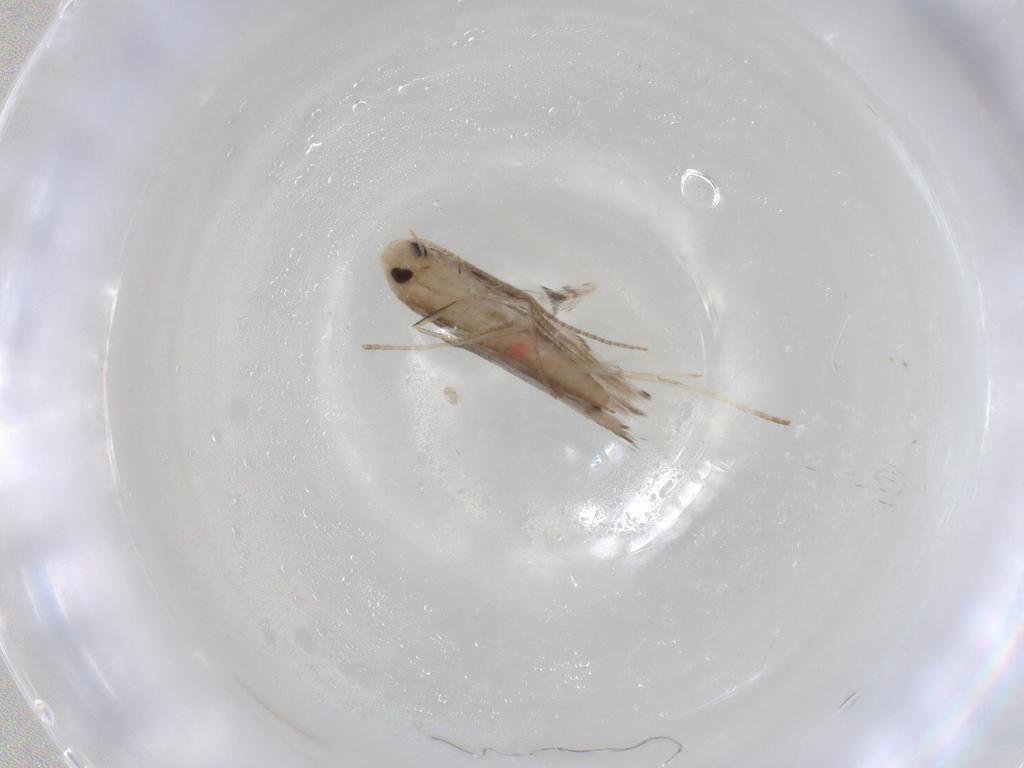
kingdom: Animalia
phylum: Arthropoda
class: Insecta
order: Lepidoptera
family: Gracillariidae
